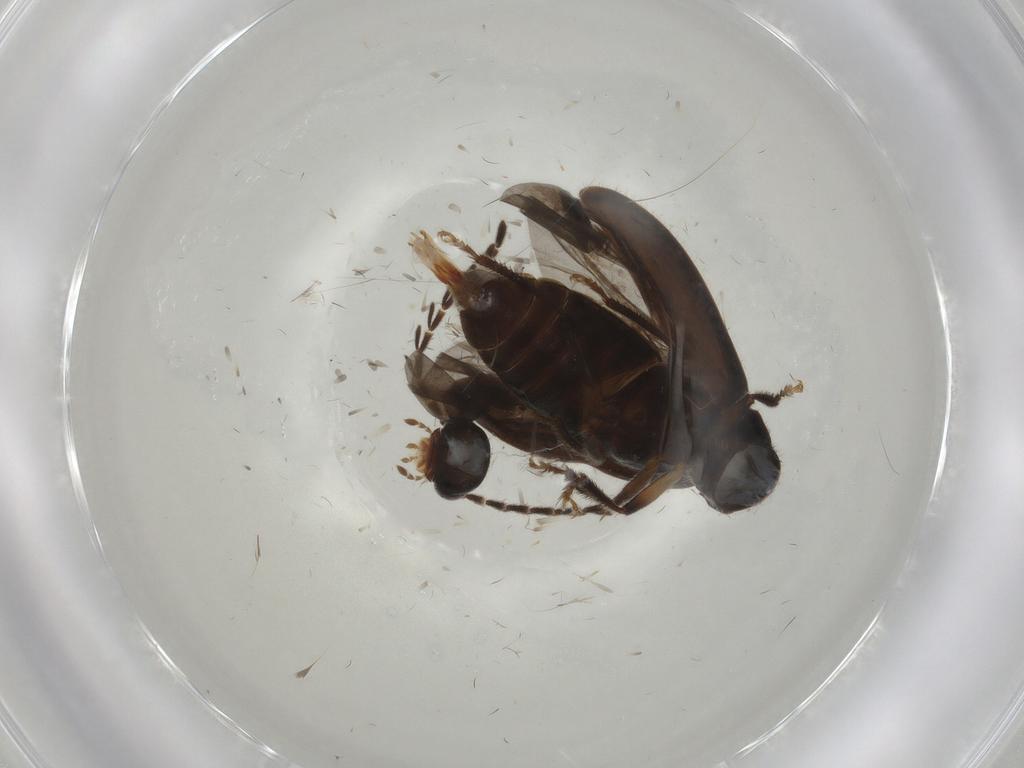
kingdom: Animalia
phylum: Arthropoda
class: Insecta
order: Coleoptera
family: Ptilodactylidae
